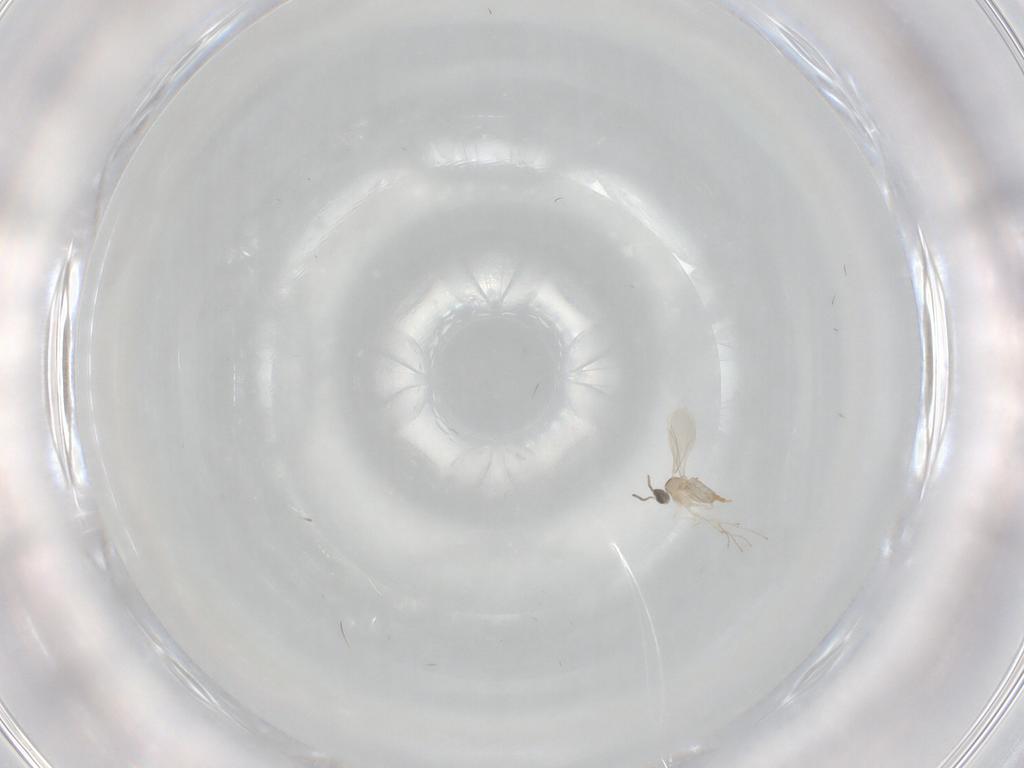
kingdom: Animalia
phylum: Arthropoda
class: Insecta
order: Diptera
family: Cecidomyiidae
